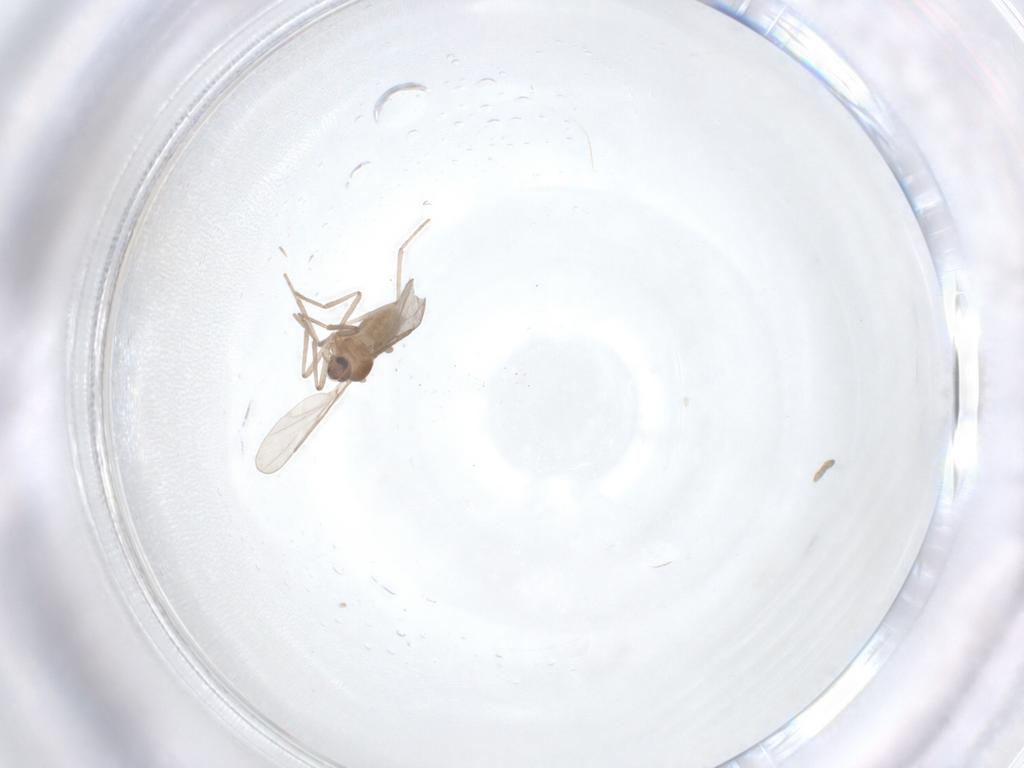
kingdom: Animalia
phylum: Arthropoda
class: Insecta
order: Diptera
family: Cecidomyiidae
